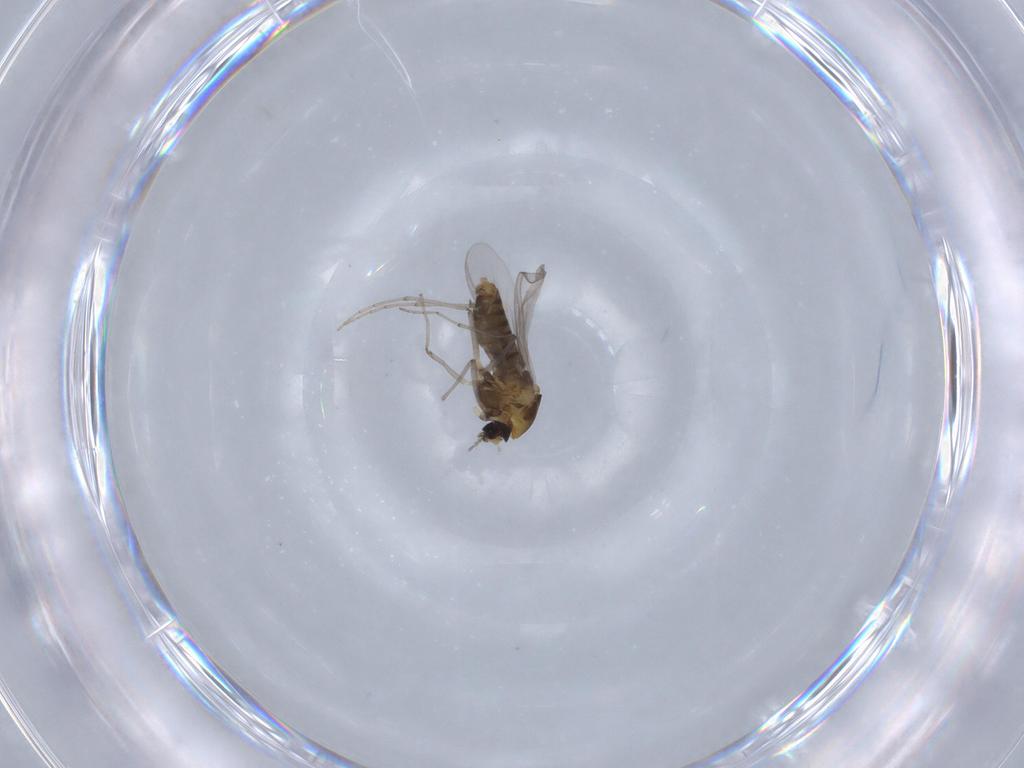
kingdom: Animalia
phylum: Arthropoda
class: Insecta
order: Diptera
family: Chironomidae
